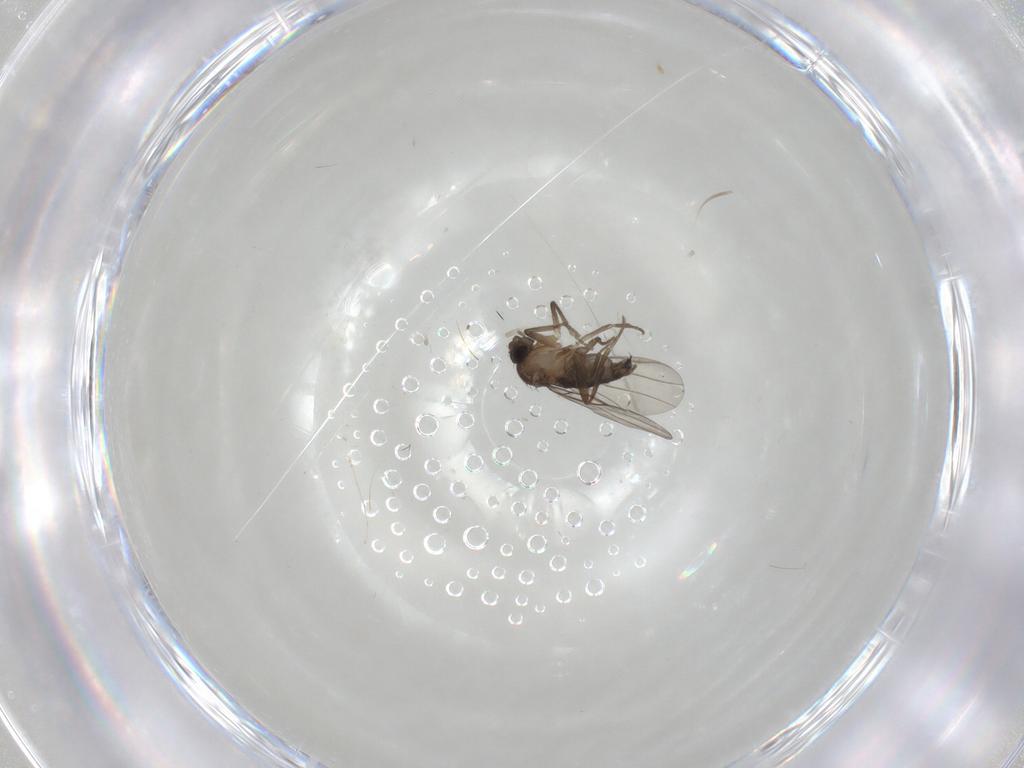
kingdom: Animalia
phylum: Arthropoda
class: Insecta
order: Diptera
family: Cecidomyiidae
